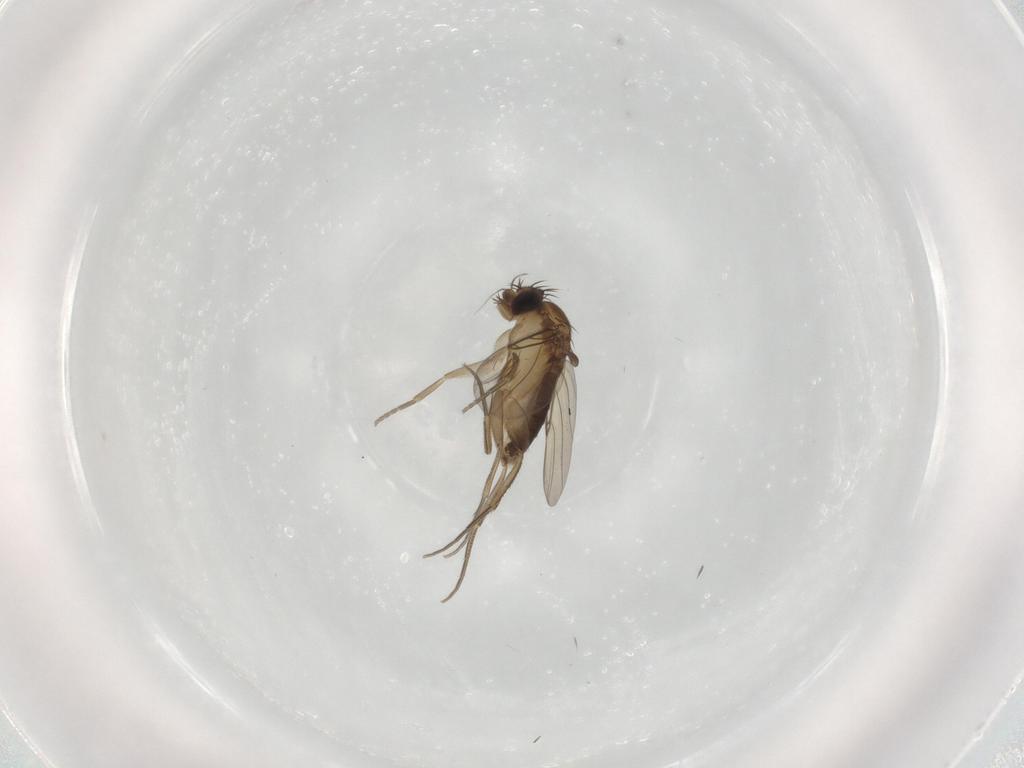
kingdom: Animalia
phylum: Arthropoda
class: Insecta
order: Diptera
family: Phoridae
